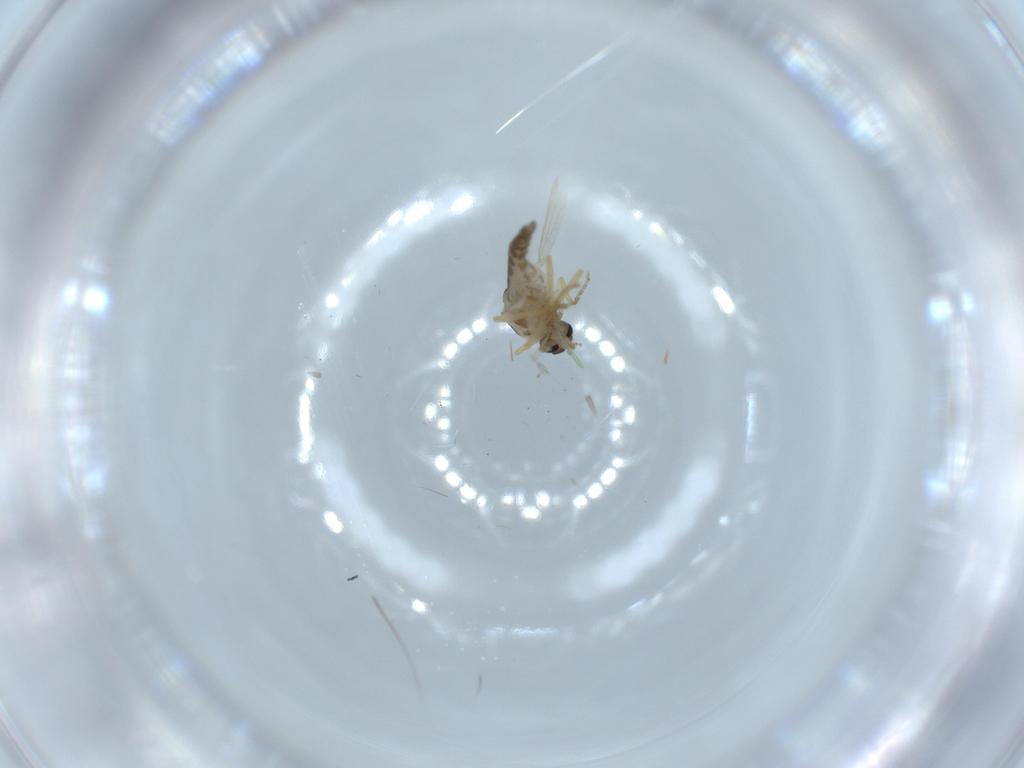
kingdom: Animalia
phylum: Arthropoda
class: Insecta
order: Diptera
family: Ceratopogonidae
